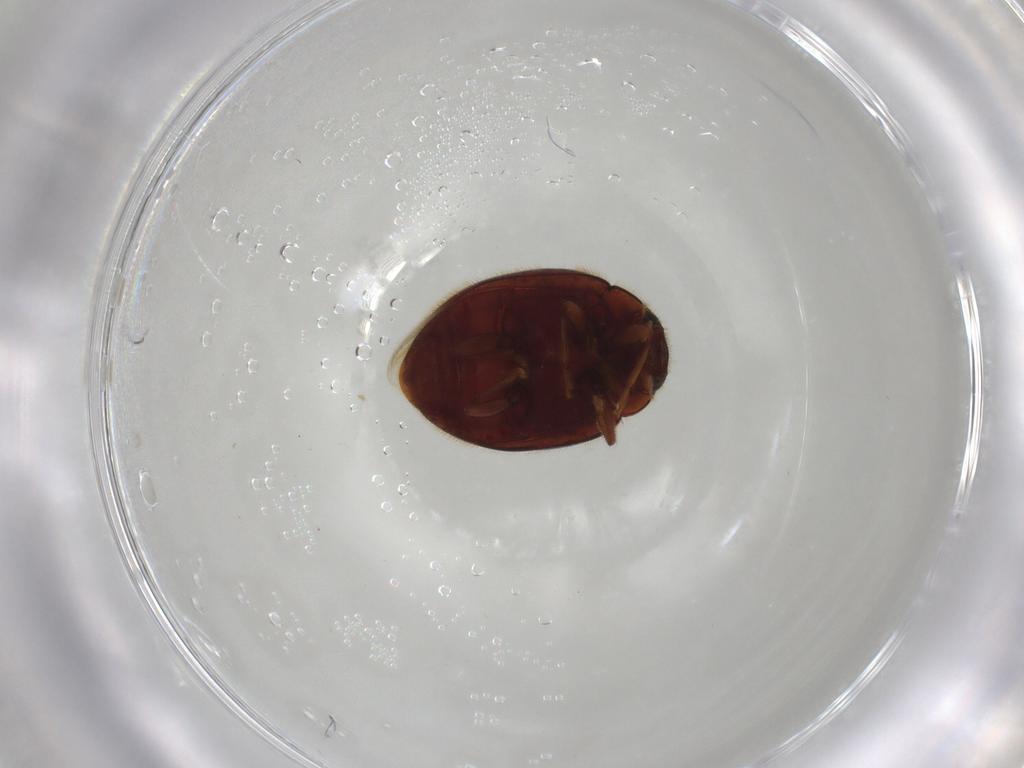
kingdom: Animalia
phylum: Arthropoda
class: Insecta
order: Coleoptera
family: Coccinellidae
